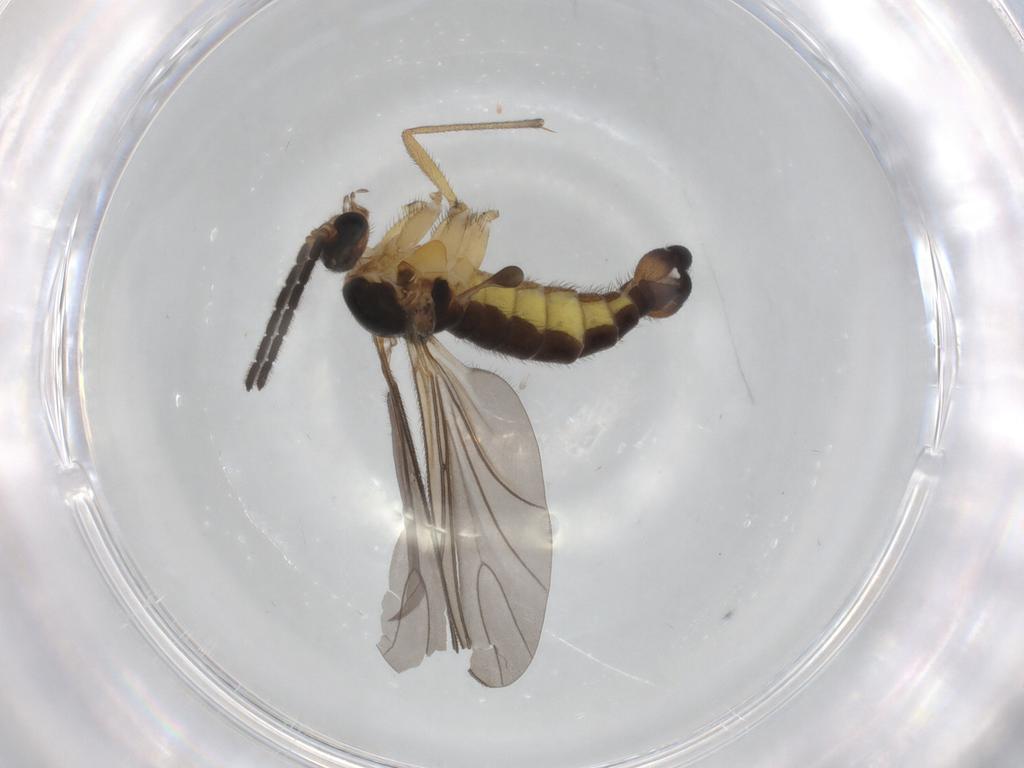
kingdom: Animalia
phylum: Arthropoda
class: Insecta
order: Diptera
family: Sciaridae
